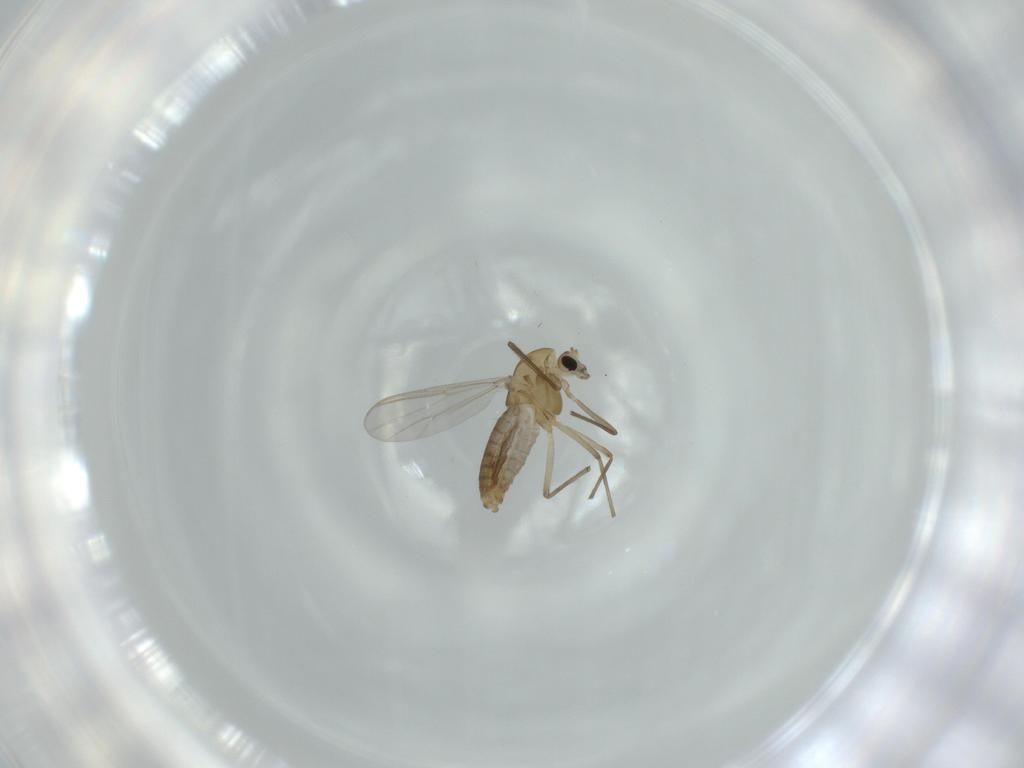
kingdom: Animalia
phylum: Arthropoda
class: Insecta
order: Diptera
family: Chironomidae
